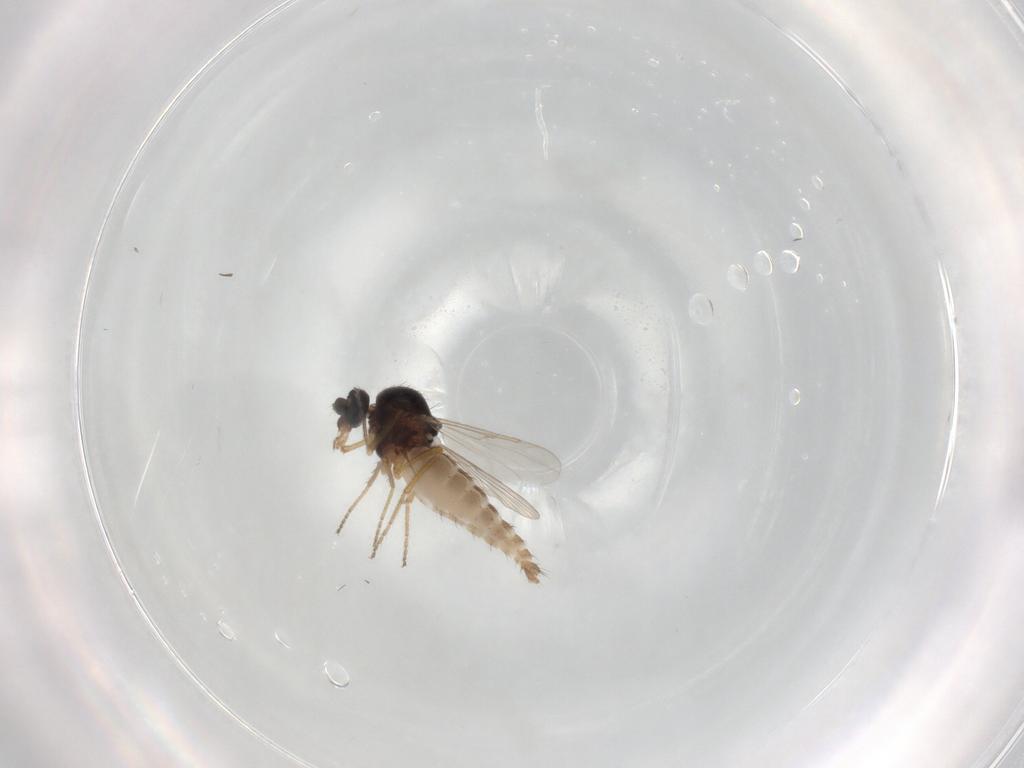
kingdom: Animalia
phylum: Arthropoda
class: Insecta
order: Diptera
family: Ceratopogonidae
